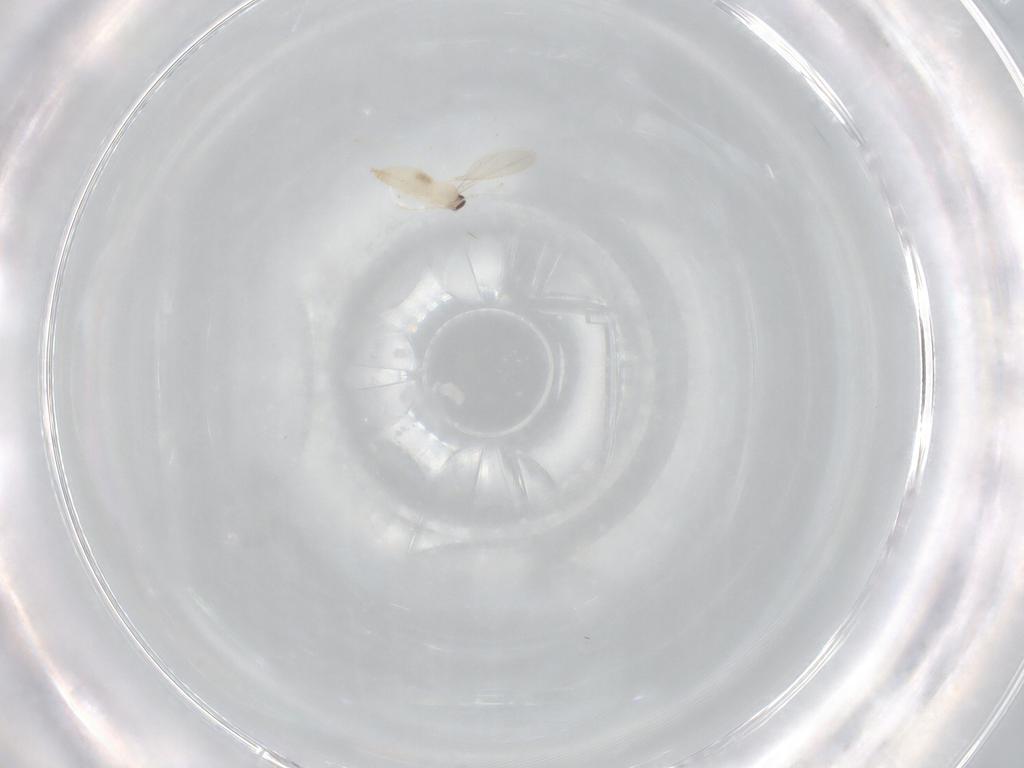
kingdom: Animalia
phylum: Arthropoda
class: Insecta
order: Diptera
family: Cecidomyiidae
